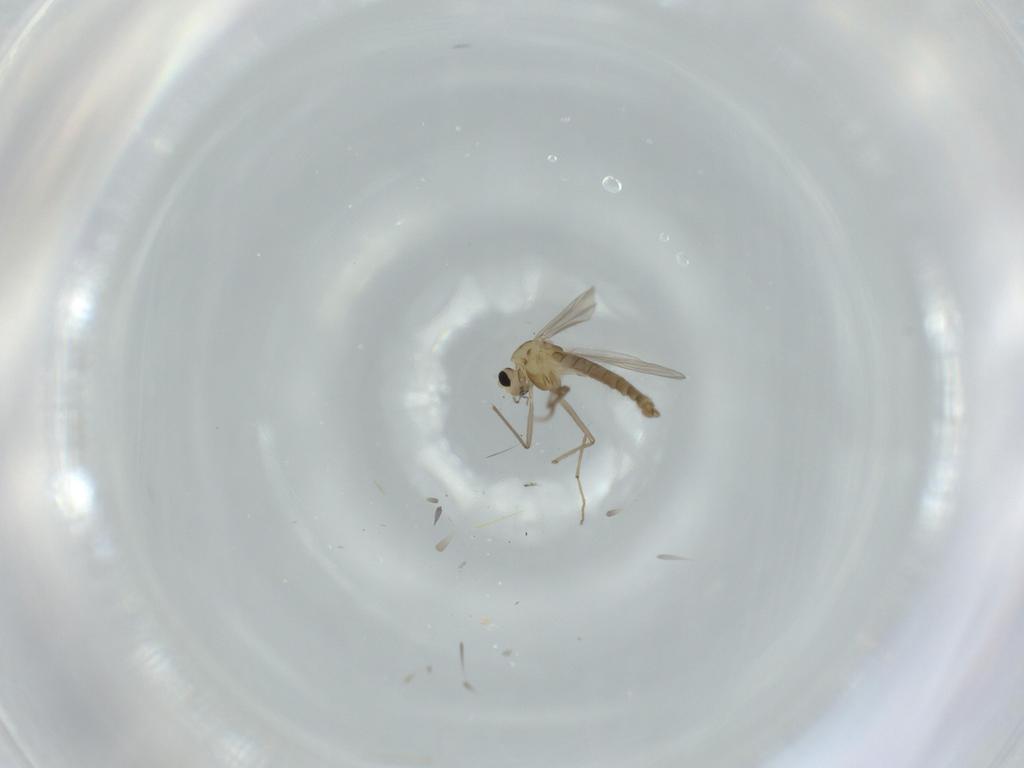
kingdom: Animalia
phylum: Arthropoda
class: Insecta
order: Diptera
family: Chironomidae
